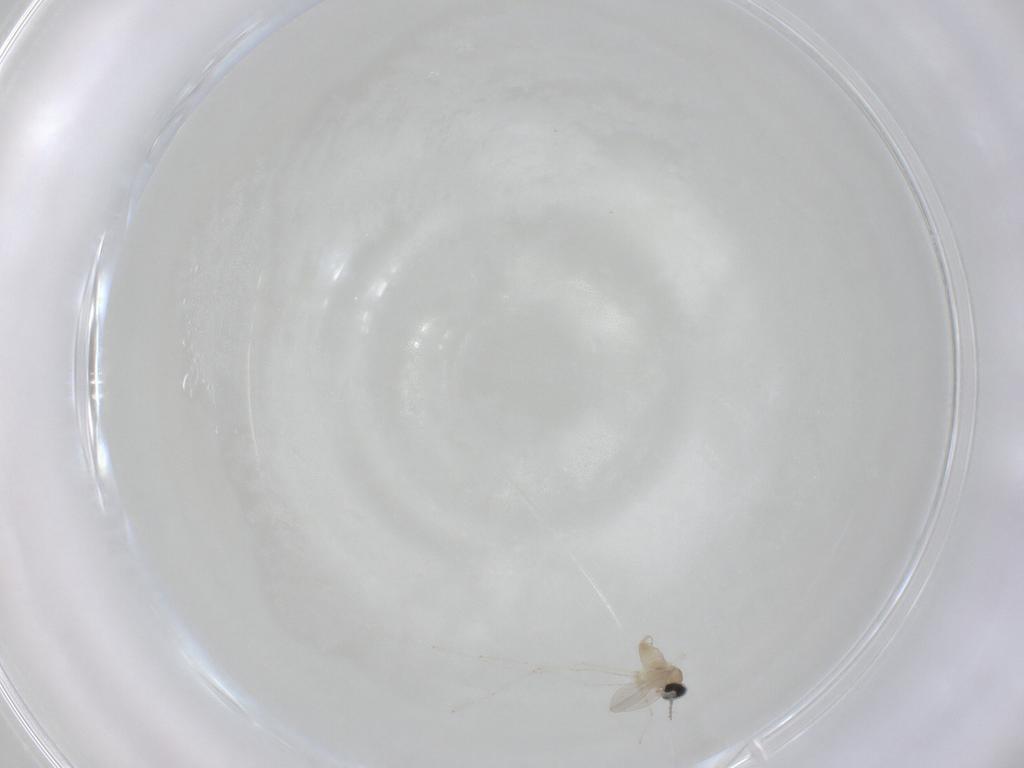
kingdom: Animalia
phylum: Arthropoda
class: Insecta
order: Diptera
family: Cecidomyiidae
